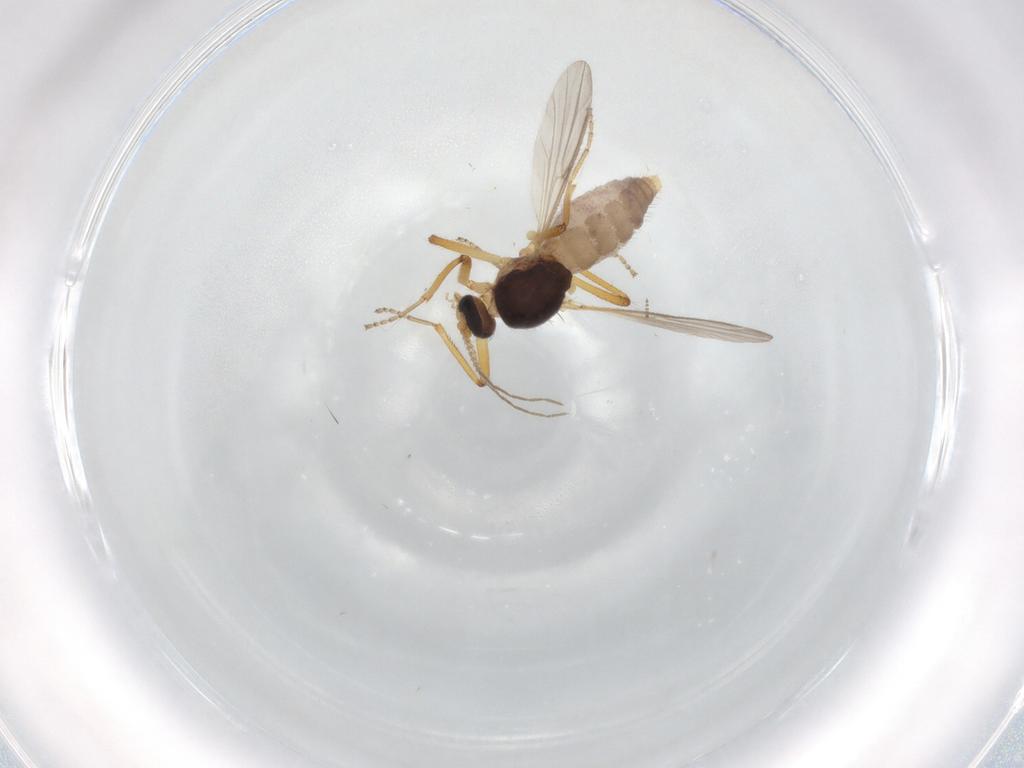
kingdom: Animalia
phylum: Arthropoda
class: Insecta
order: Diptera
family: Ceratopogonidae
